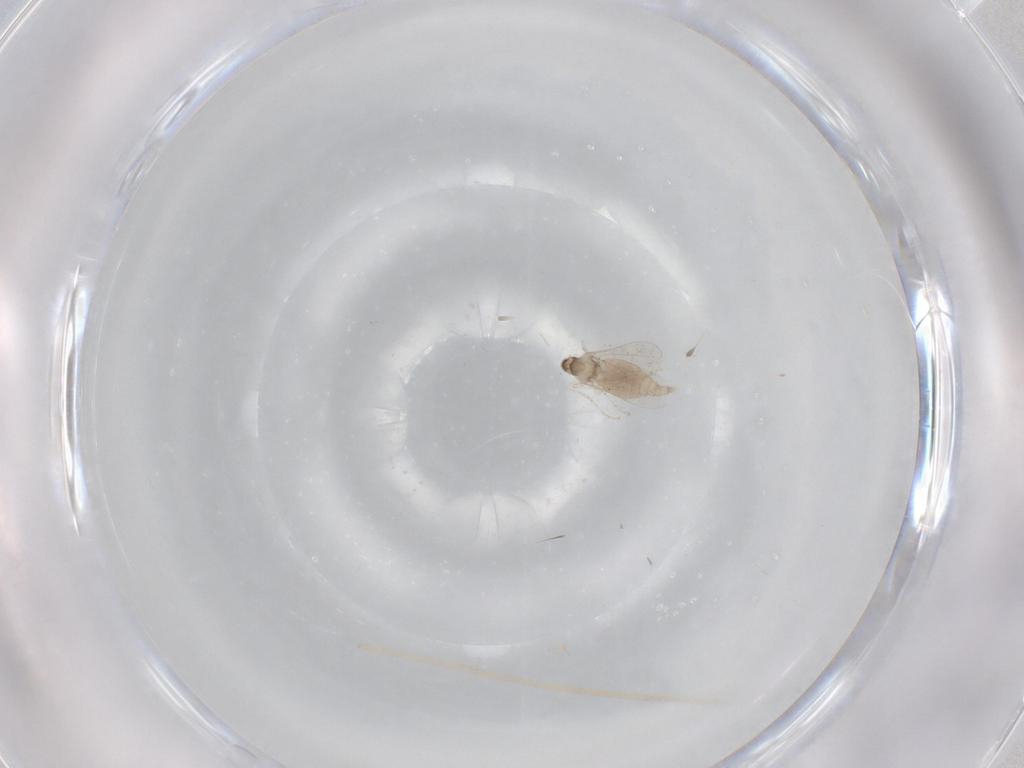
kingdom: Animalia
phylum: Arthropoda
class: Insecta
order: Diptera
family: Cecidomyiidae
